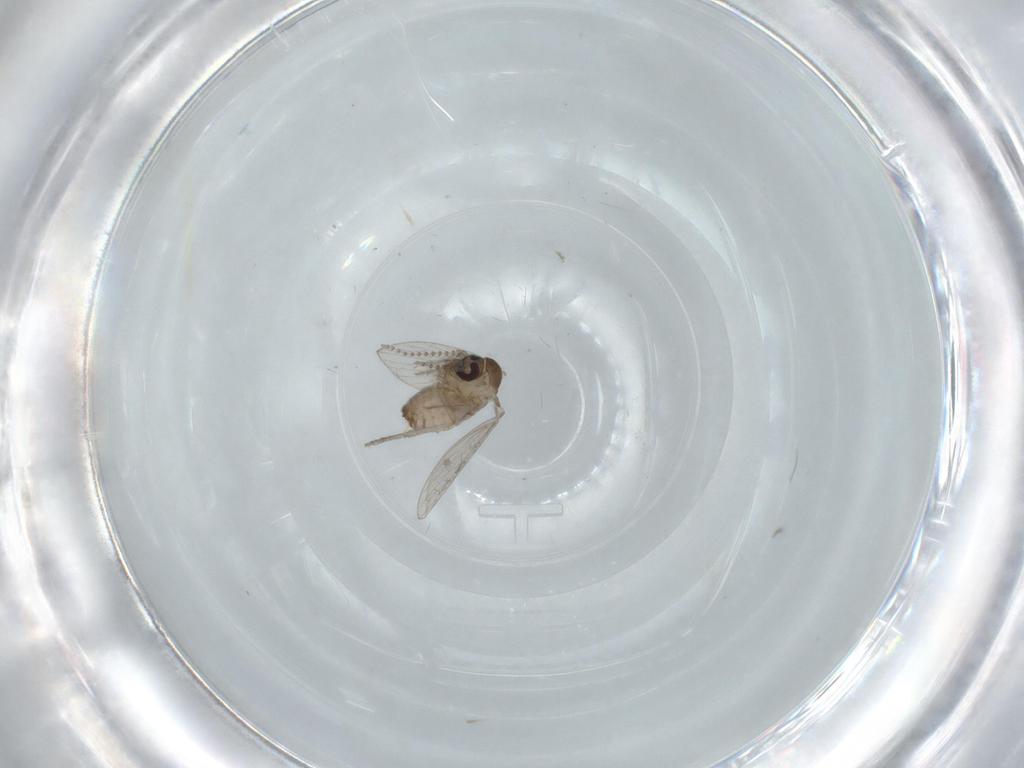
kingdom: Animalia
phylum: Arthropoda
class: Insecta
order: Diptera
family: Psychodidae
